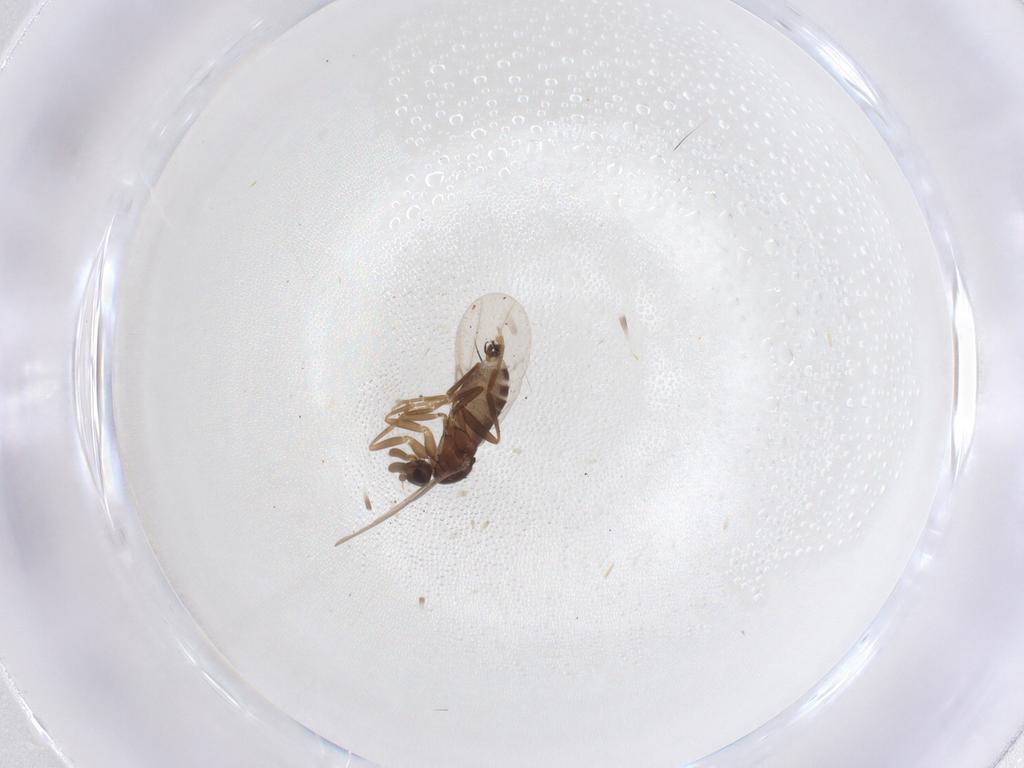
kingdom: Animalia
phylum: Arthropoda
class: Insecta
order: Diptera
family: Phoridae
